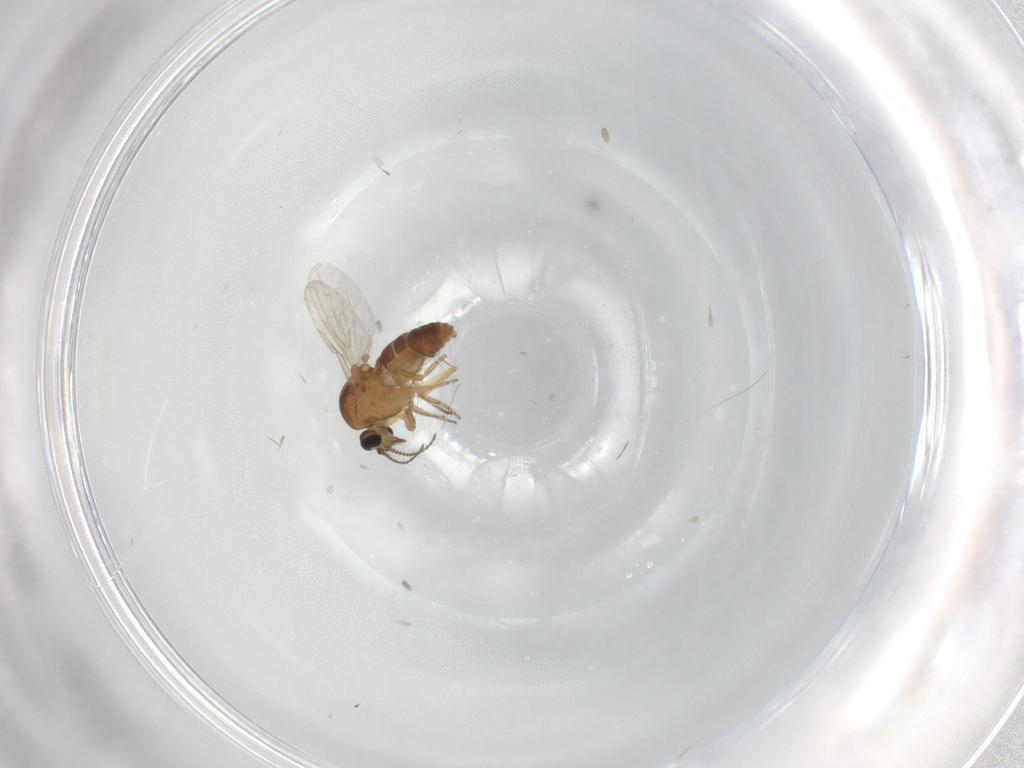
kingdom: Animalia
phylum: Arthropoda
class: Insecta
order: Diptera
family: Ceratopogonidae
